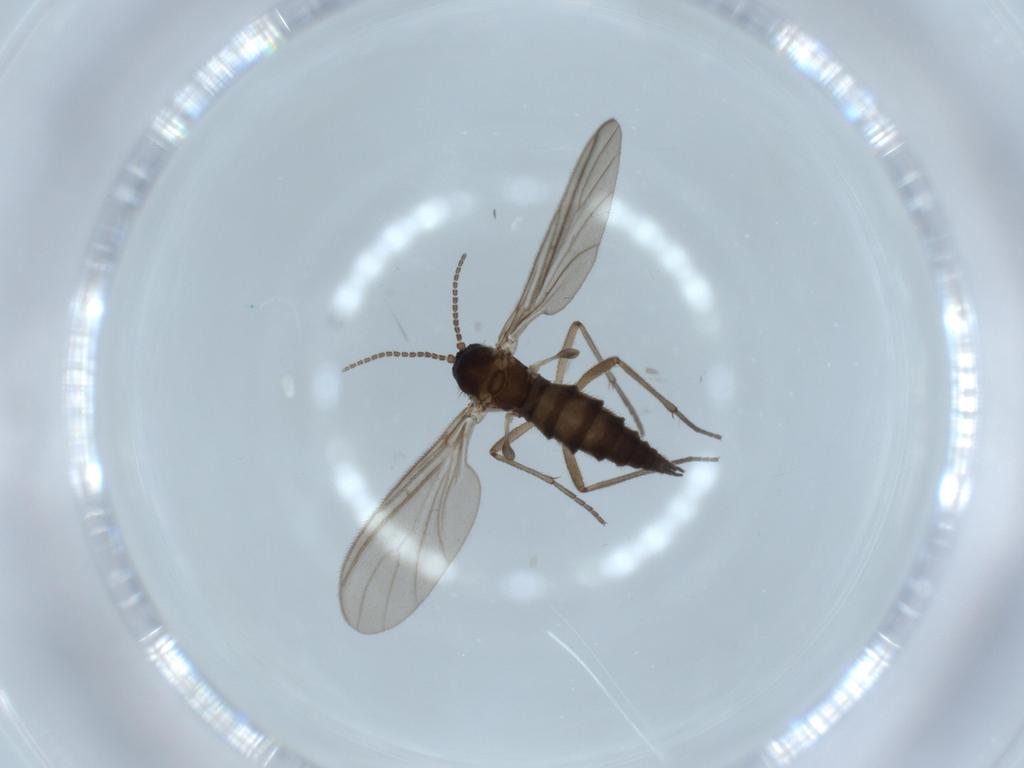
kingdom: Animalia
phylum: Arthropoda
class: Insecta
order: Diptera
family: Sciaridae
